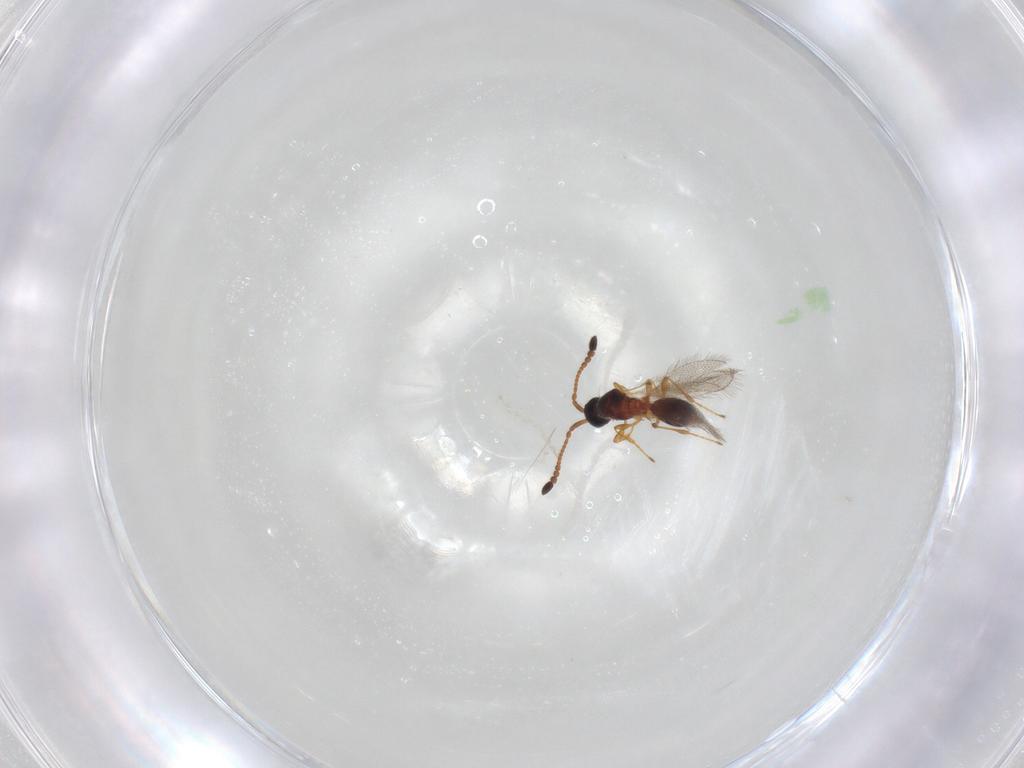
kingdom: Animalia
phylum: Arthropoda
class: Insecta
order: Hymenoptera
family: Diapriidae
